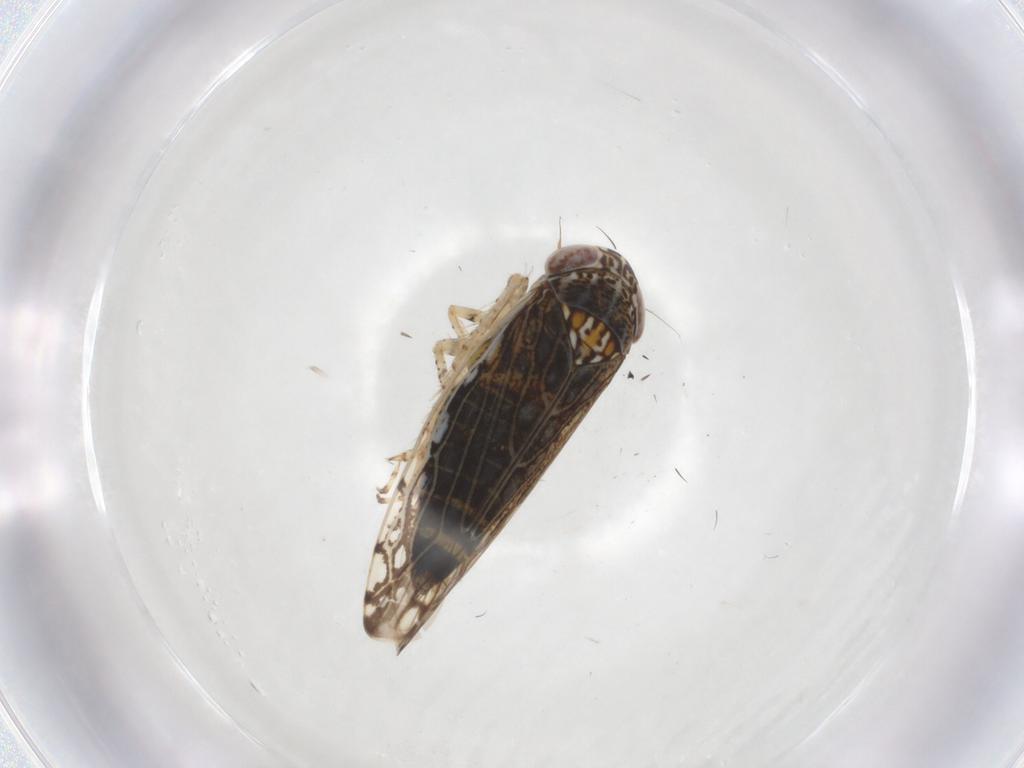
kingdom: Animalia
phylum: Arthropoda
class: Insecta
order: Hemiptera
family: Cicadellidae
